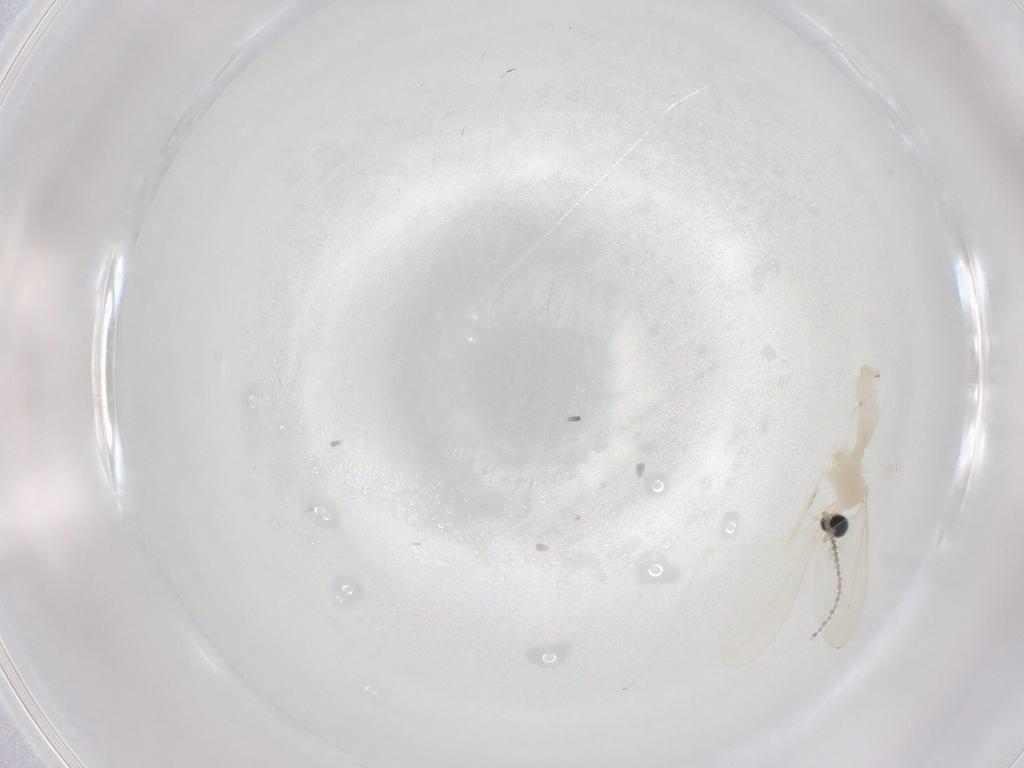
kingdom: Animalia
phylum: Arthropoda
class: Insecta
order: Diptera
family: Cecidomyiidae
